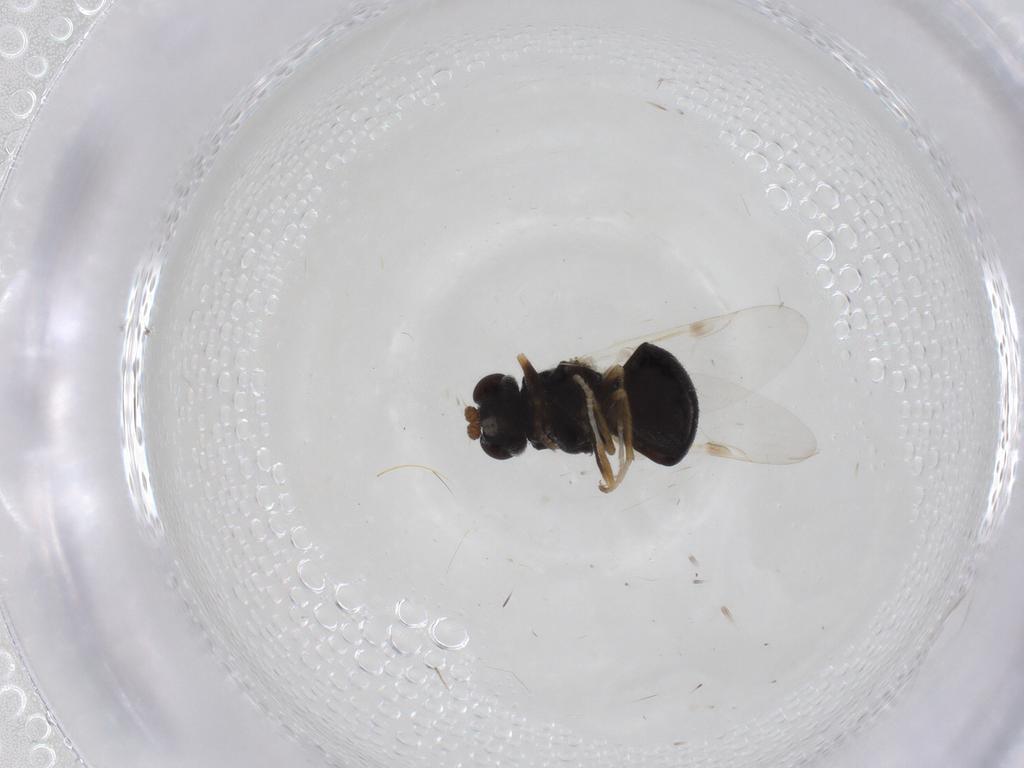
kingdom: Animalia
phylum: Arthropoda
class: Insecta
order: Diptera
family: Stratiomyidae
